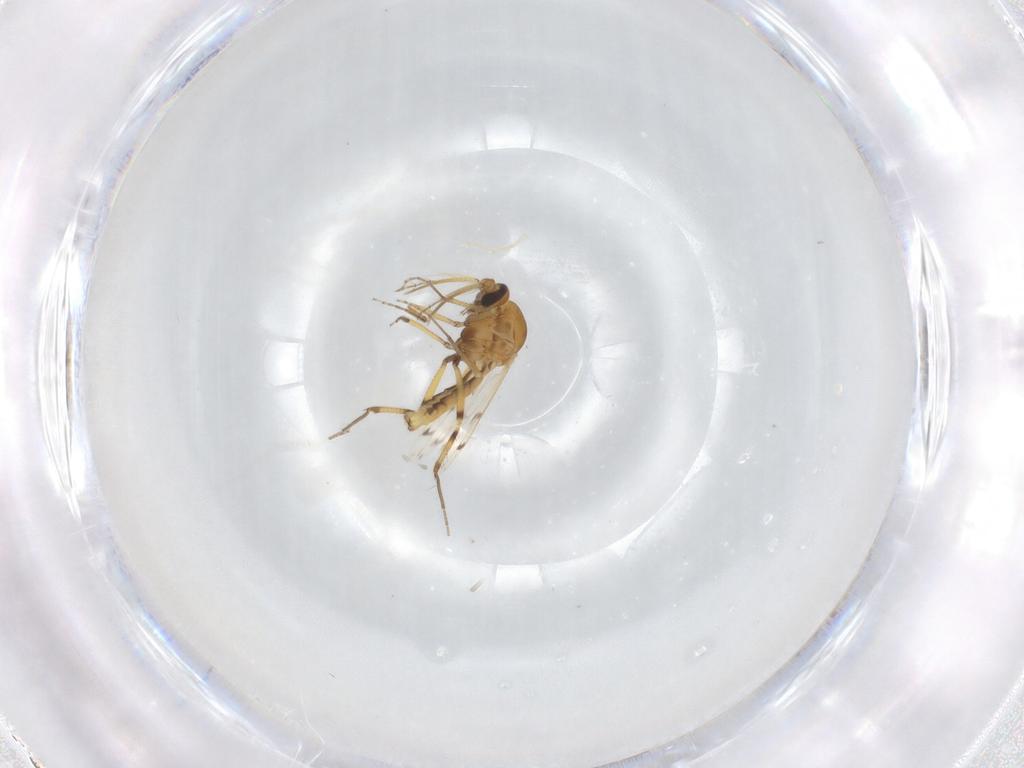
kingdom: Animalia
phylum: Arthropoda
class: Insecta
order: Diptera
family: Ceratopogonidae
